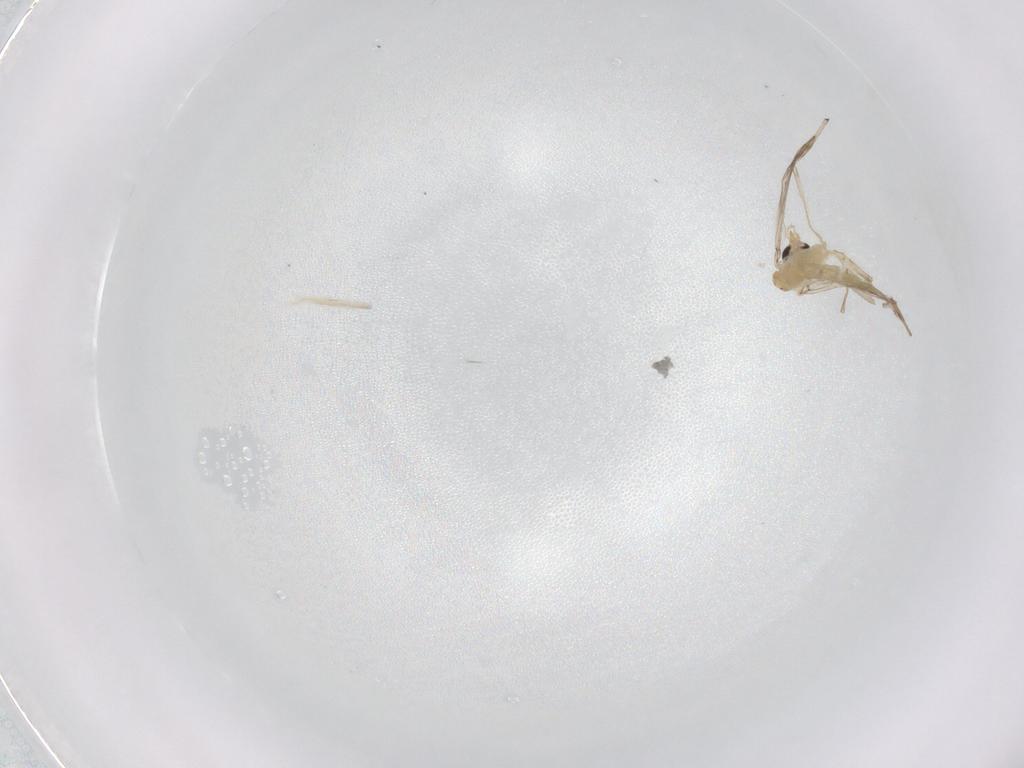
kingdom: Animalia
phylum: Arthropoda
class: Insecta
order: Diptera
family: Chironomidae
